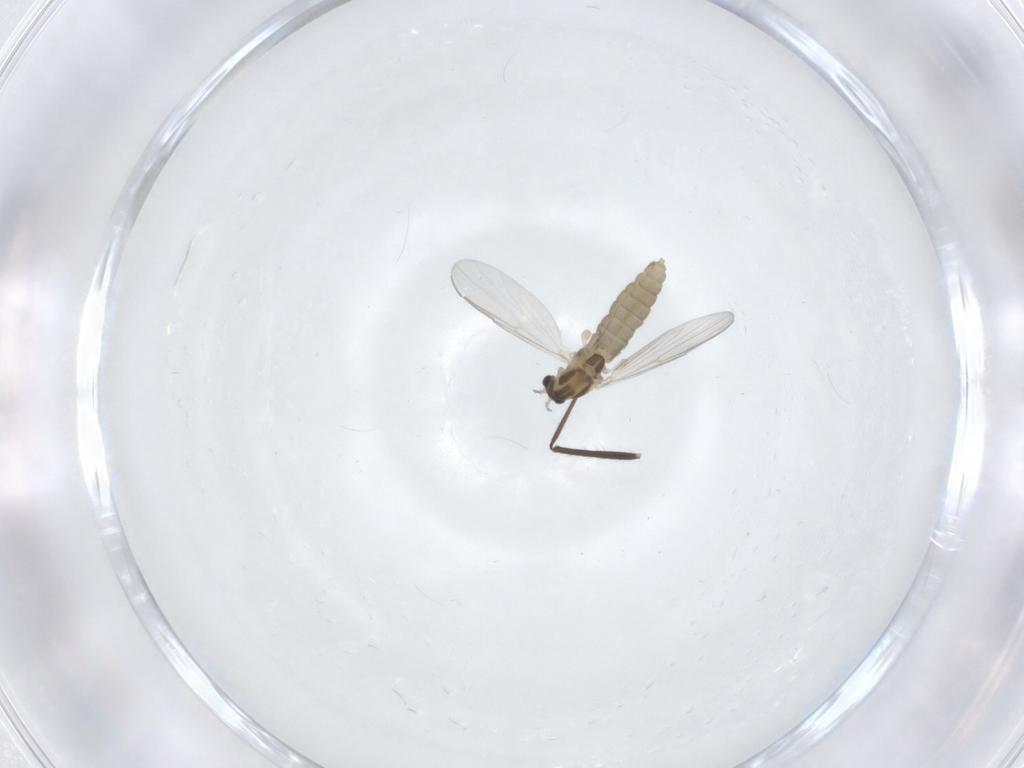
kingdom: Animalia
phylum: Arthropoda
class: Insecta
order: Diptera
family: Chironomidae
